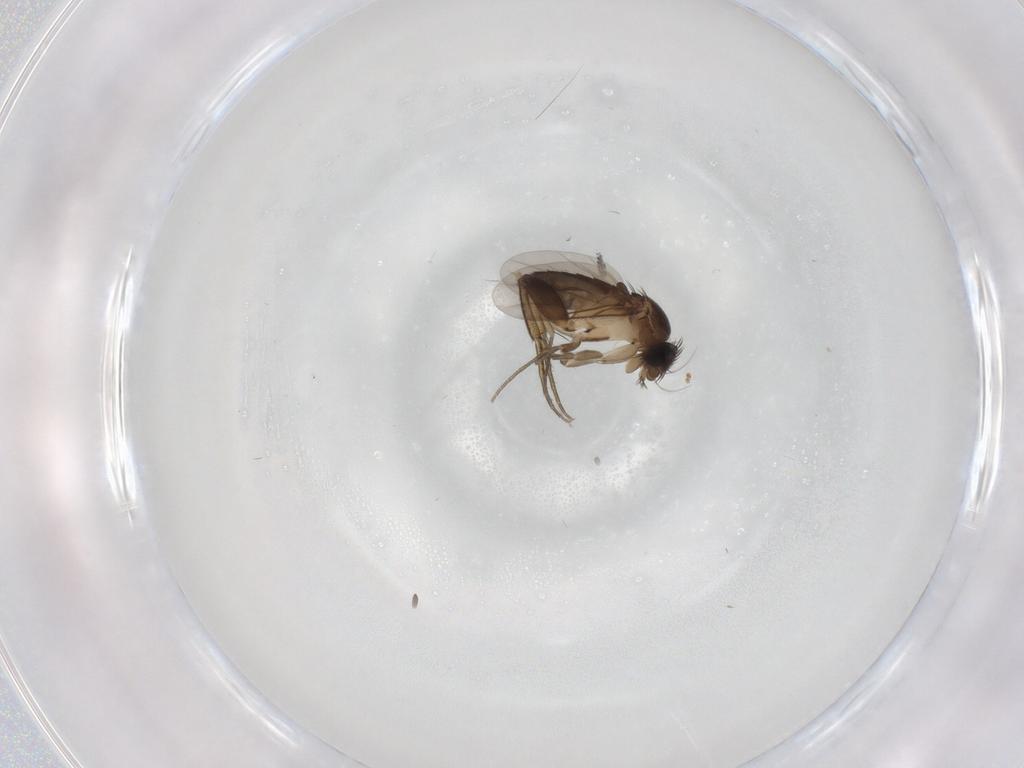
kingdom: Animalia
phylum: Arthropoda
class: Insecta
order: Diptera
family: Phoridae
